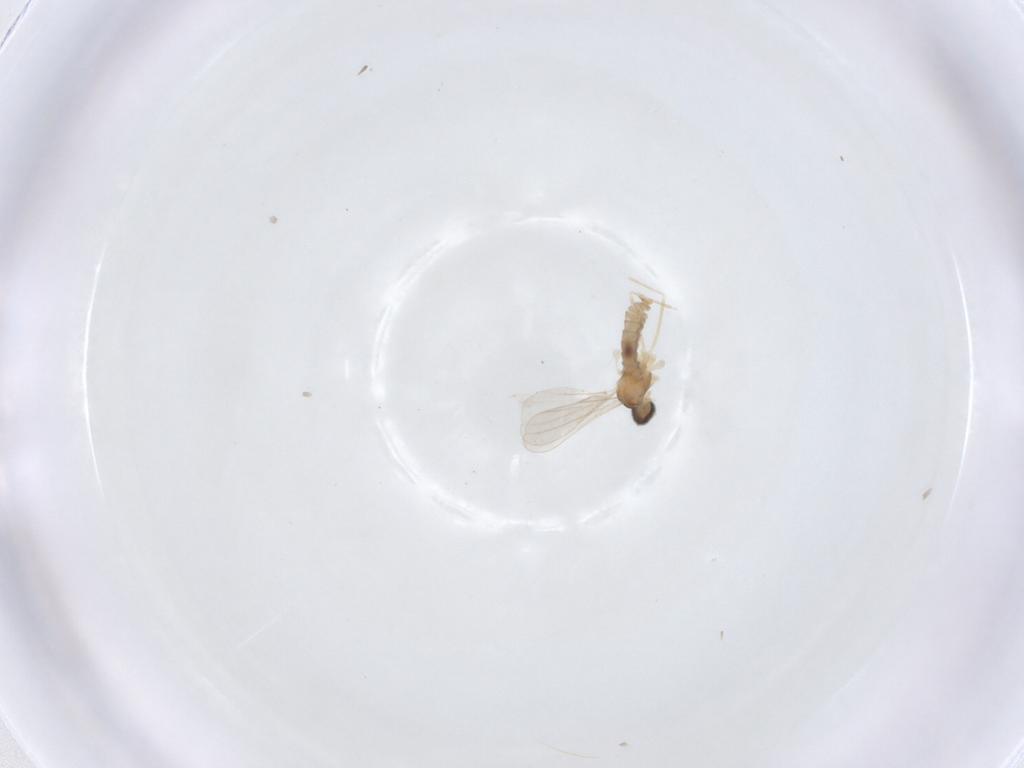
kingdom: Animalia
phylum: Arthropoda
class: Insecta
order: Diptera
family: Cecidomyiidae
